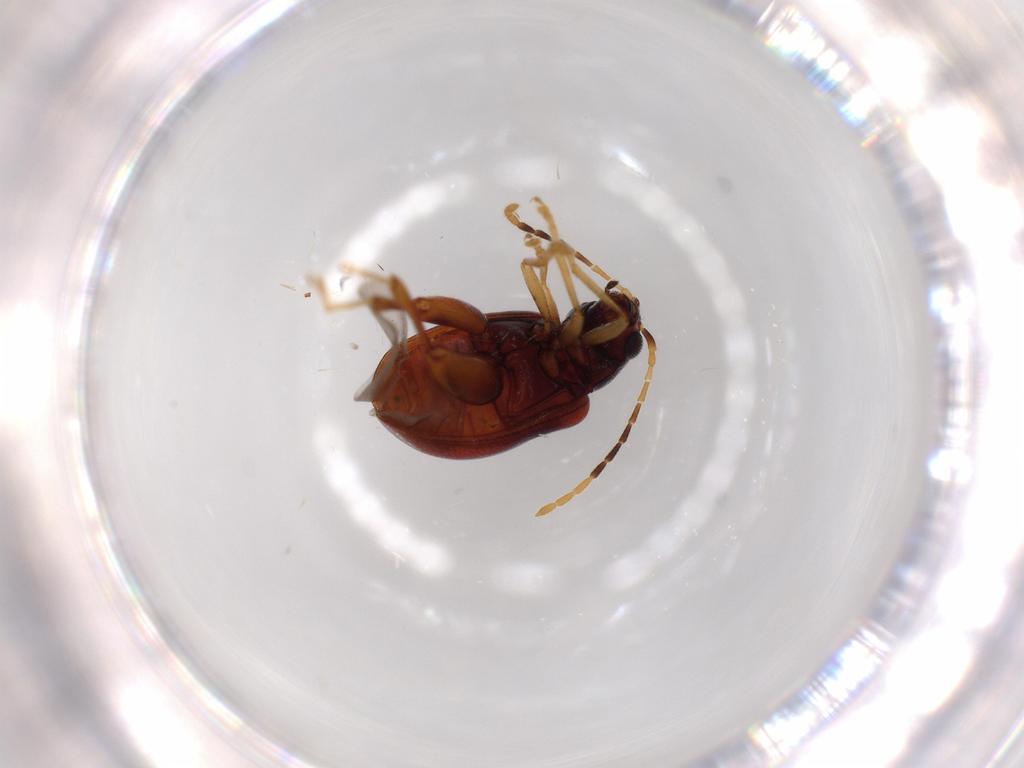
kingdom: Animalia
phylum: Arthropoda
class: Insecta
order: Coleoptera
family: Chrysomelidae
